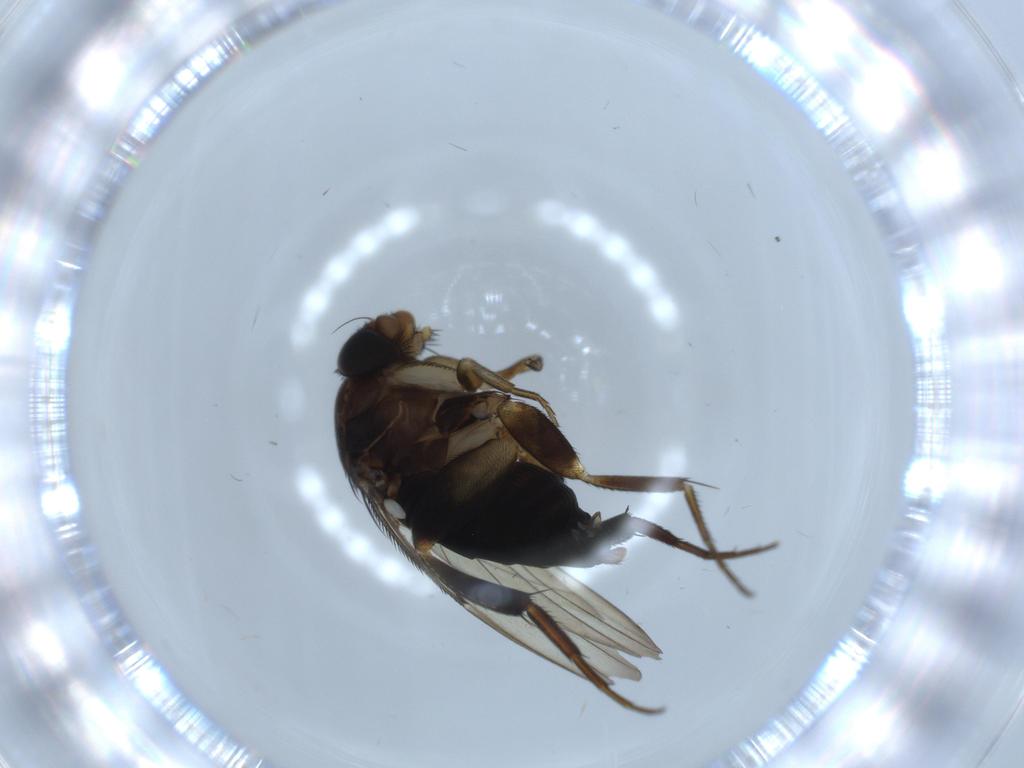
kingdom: Animalia
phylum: Arthropoda
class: Insecta
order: Diptera
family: Phoridae
